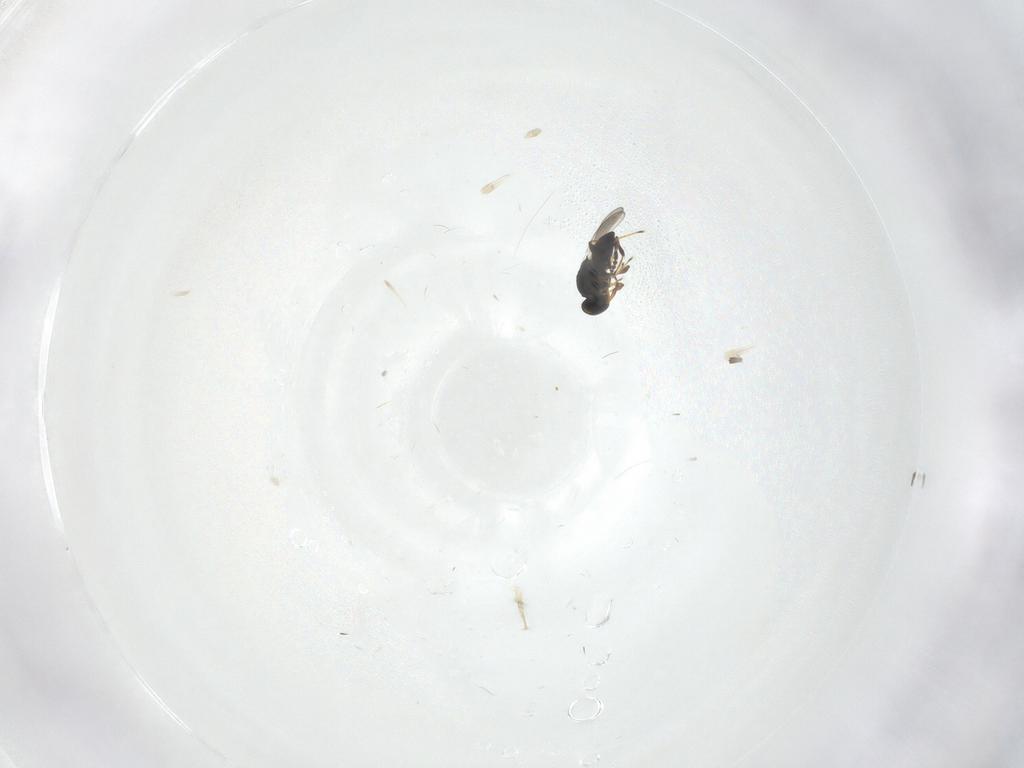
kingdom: Animalia
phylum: Arthropoda
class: Insecta
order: Hymenoptera
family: Platygastridae
